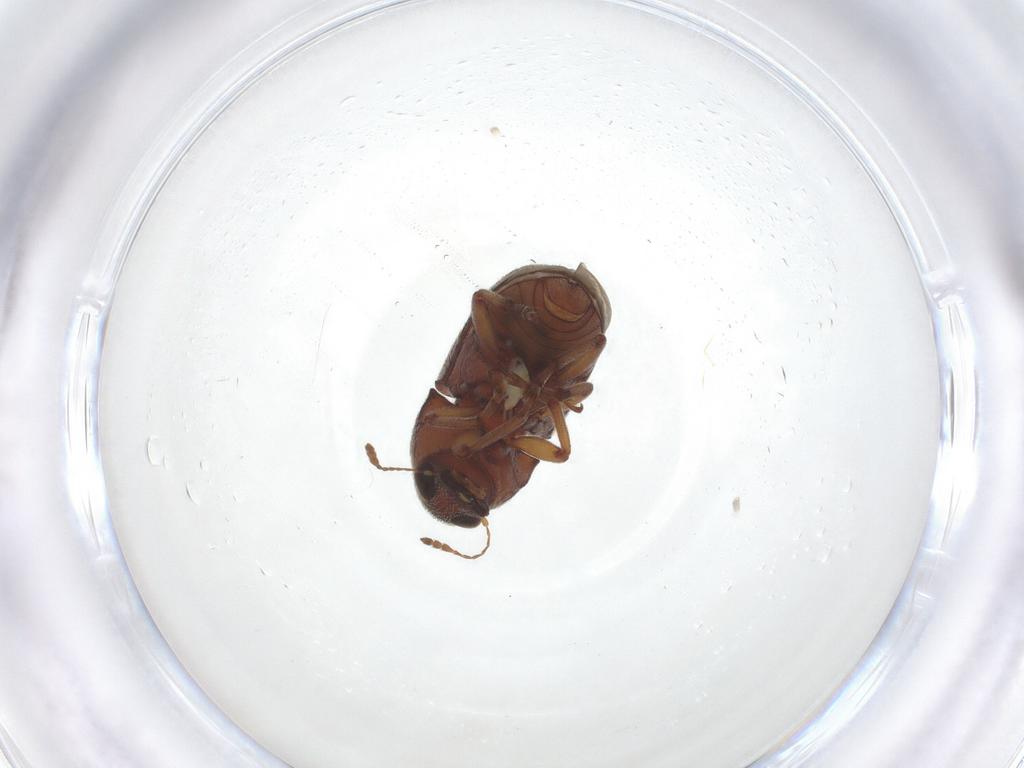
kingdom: Animalia
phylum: Arthropoda
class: Insecta
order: Coleoptera
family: Anthribidae
